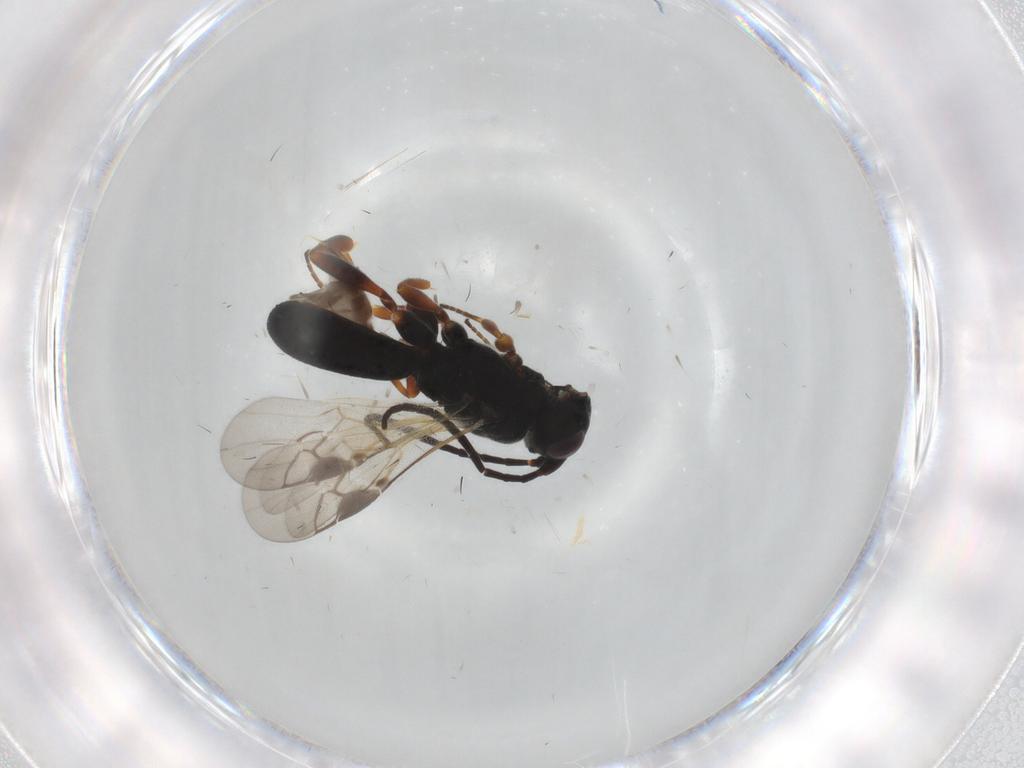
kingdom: Animalia
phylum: Arthropoda
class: Insecta
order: Hymenoptera
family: Braconidae
